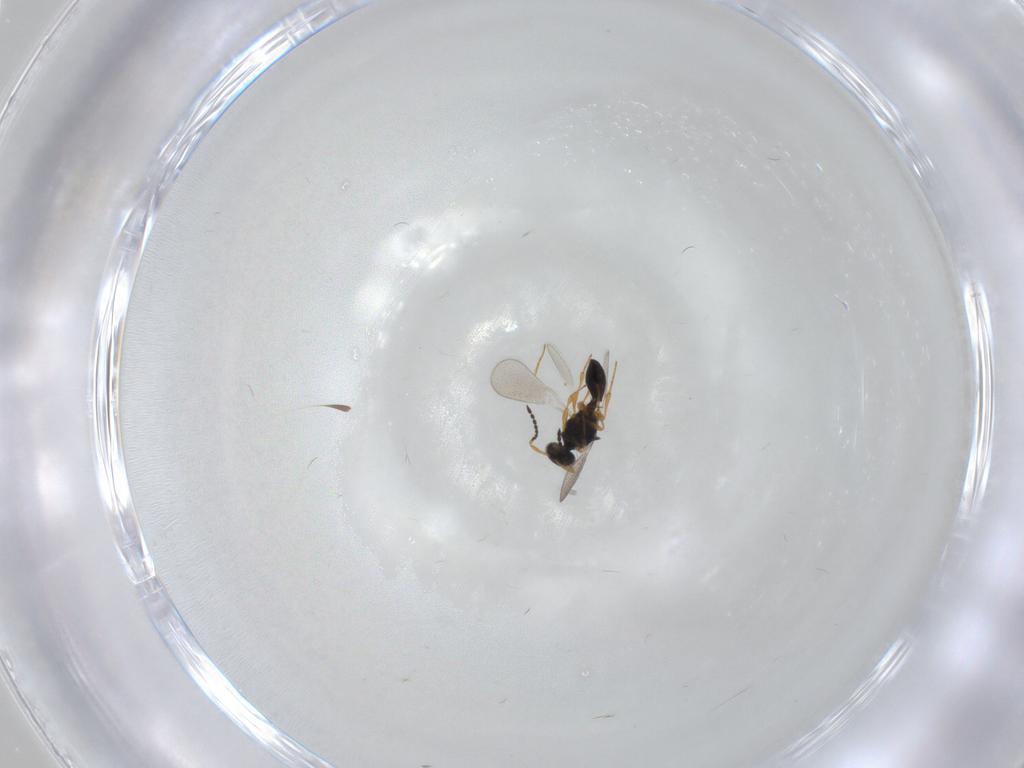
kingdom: Animalia
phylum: Arthropoda
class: Insecta
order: Hymenoptera
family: Platygastridae
